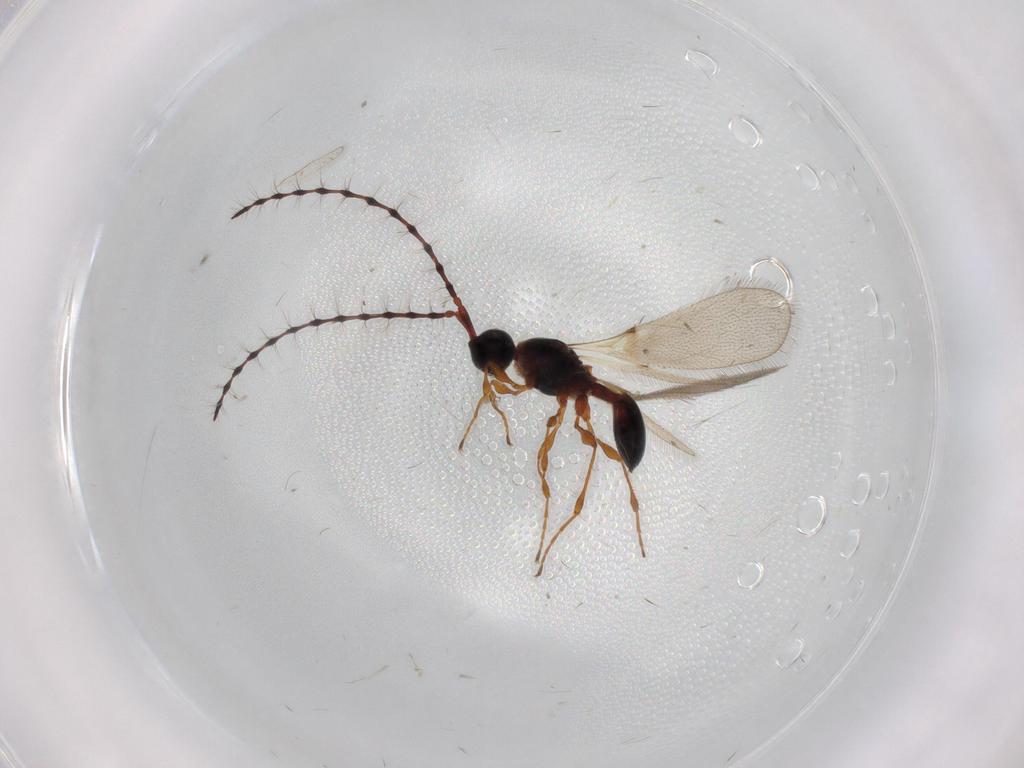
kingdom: Animalia
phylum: Arthropoda
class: Insecta
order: Hymenoptera
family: Diapriidae
